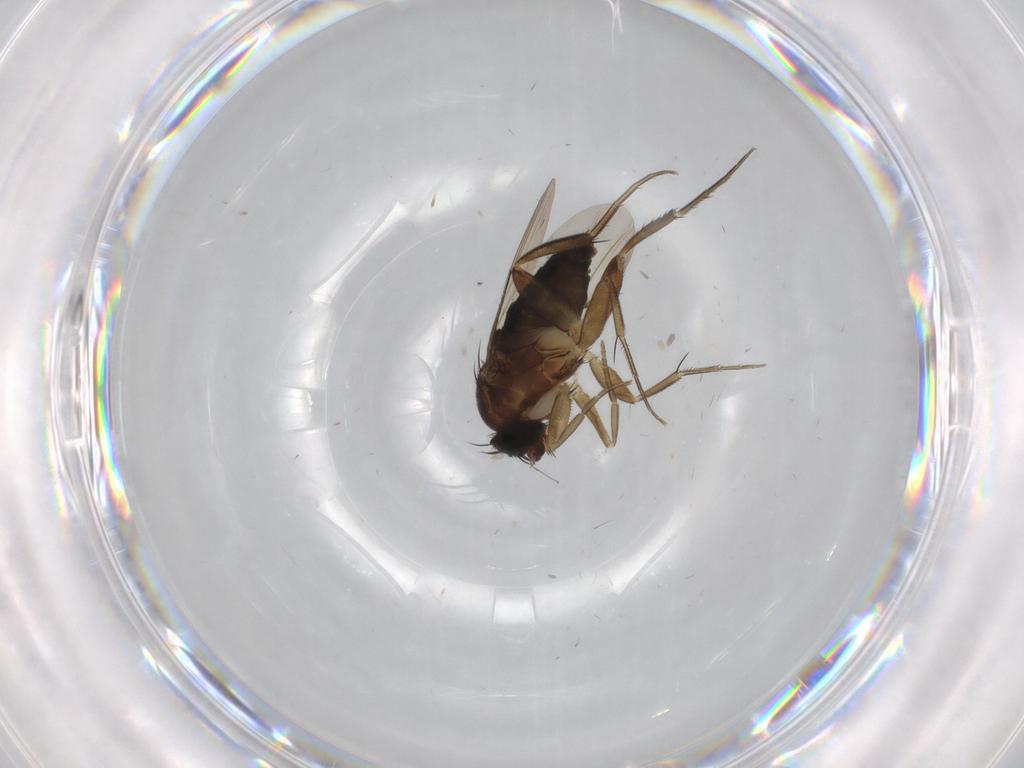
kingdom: Animalia
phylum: Arthropoda
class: Insecta
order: Diptera
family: Phoridae
